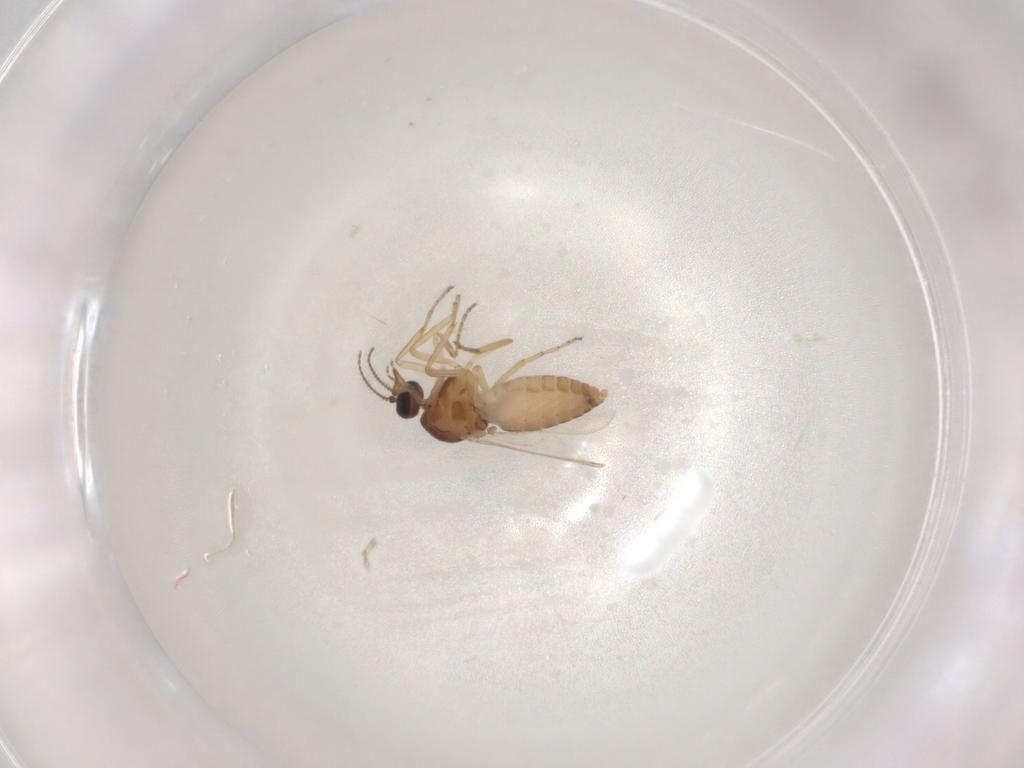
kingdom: Animalia
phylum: Arthropoda
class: Insecta
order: Diptera
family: Ceratopogonidae
